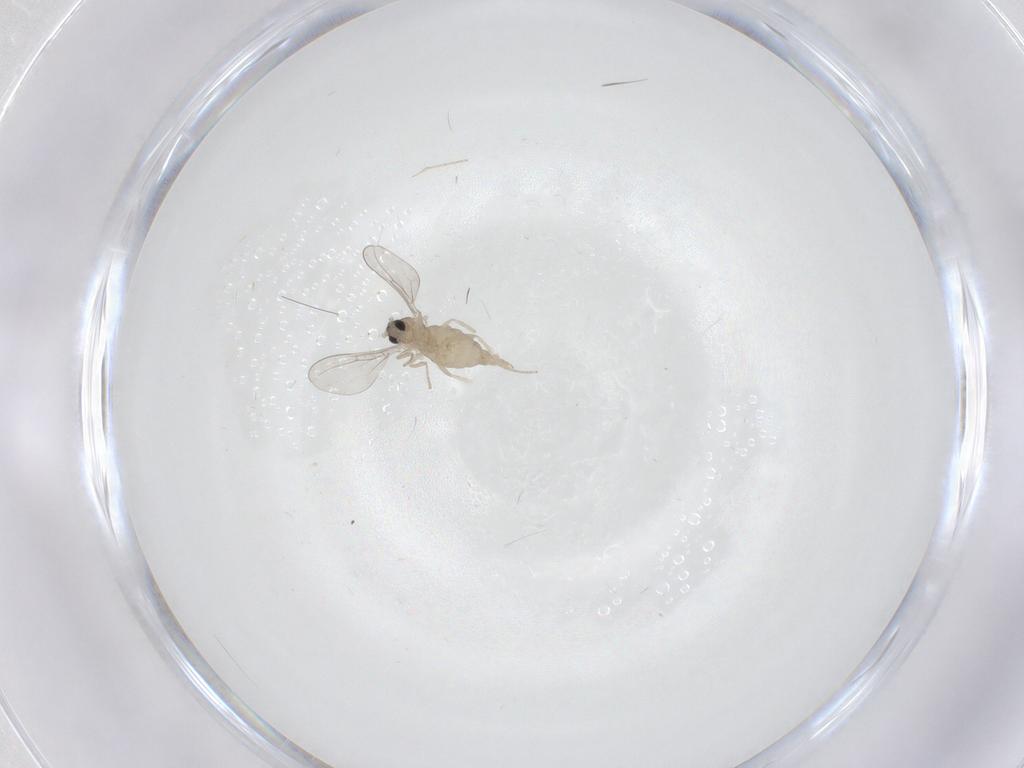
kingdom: Animalia
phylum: Arthropoda
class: Insecta
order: Diptera
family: Cecidomyiidae
